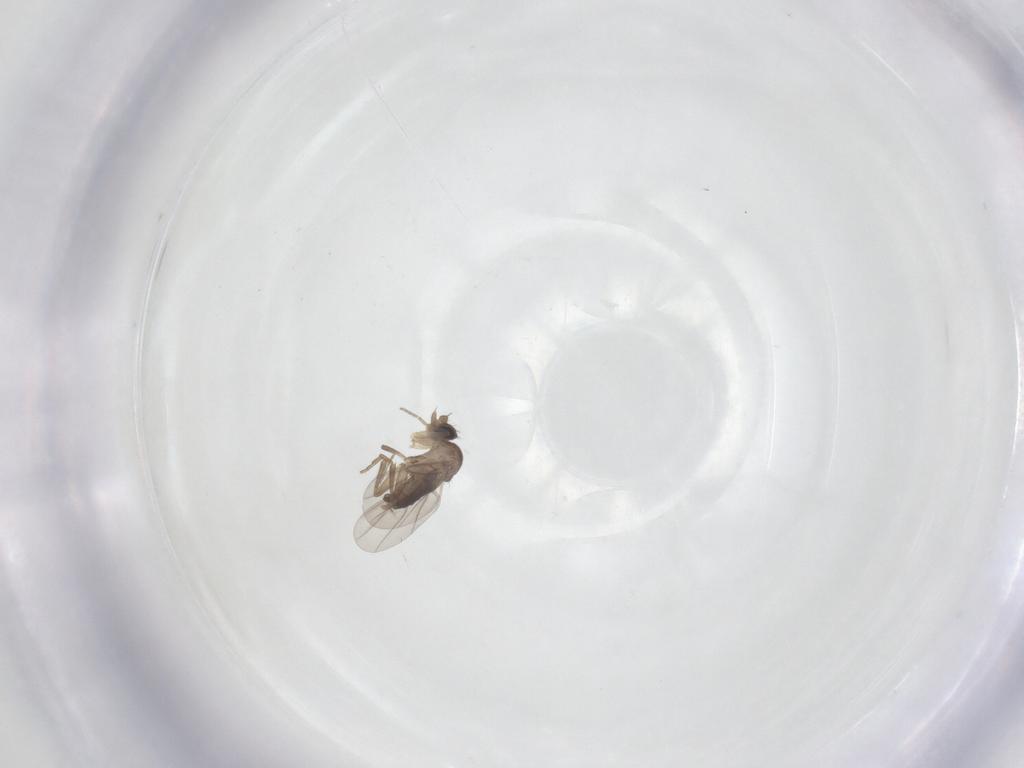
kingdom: Animalia
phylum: Arthropoda
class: Insecta
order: Diptera
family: Phoridae
